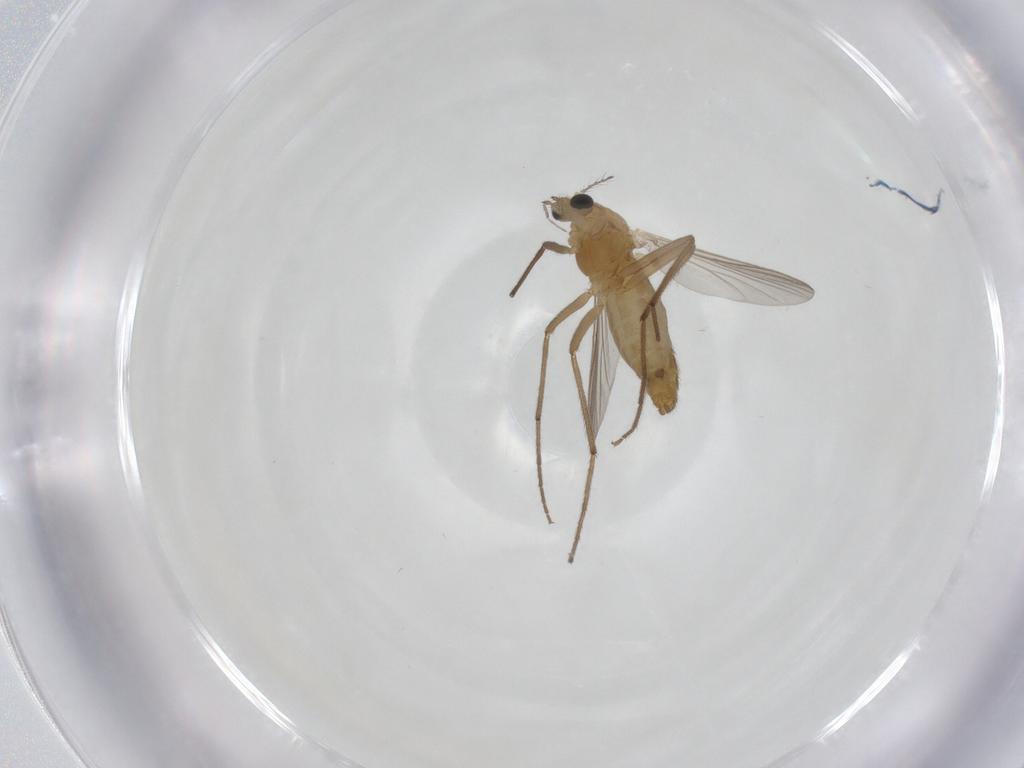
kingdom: Animalia
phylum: Arthropoda
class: Insecta
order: Diptera
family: Chironomidae
